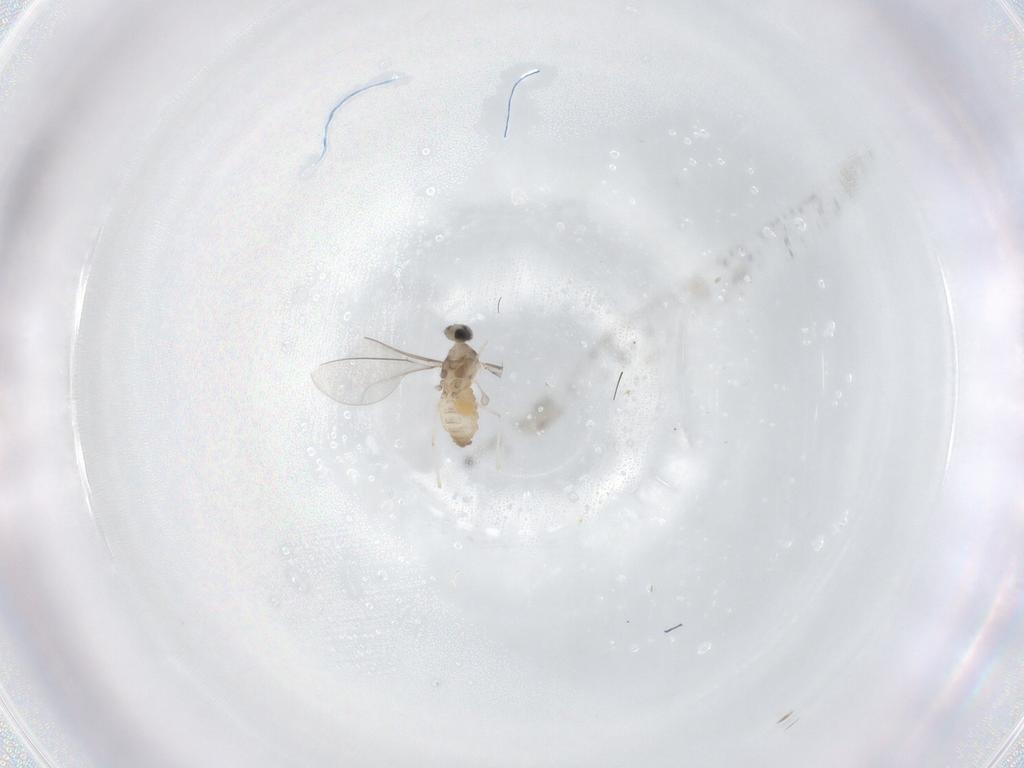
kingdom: Animalia
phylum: Arthropoda
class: Insecta
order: Diptera
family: Cecidomyiidae
